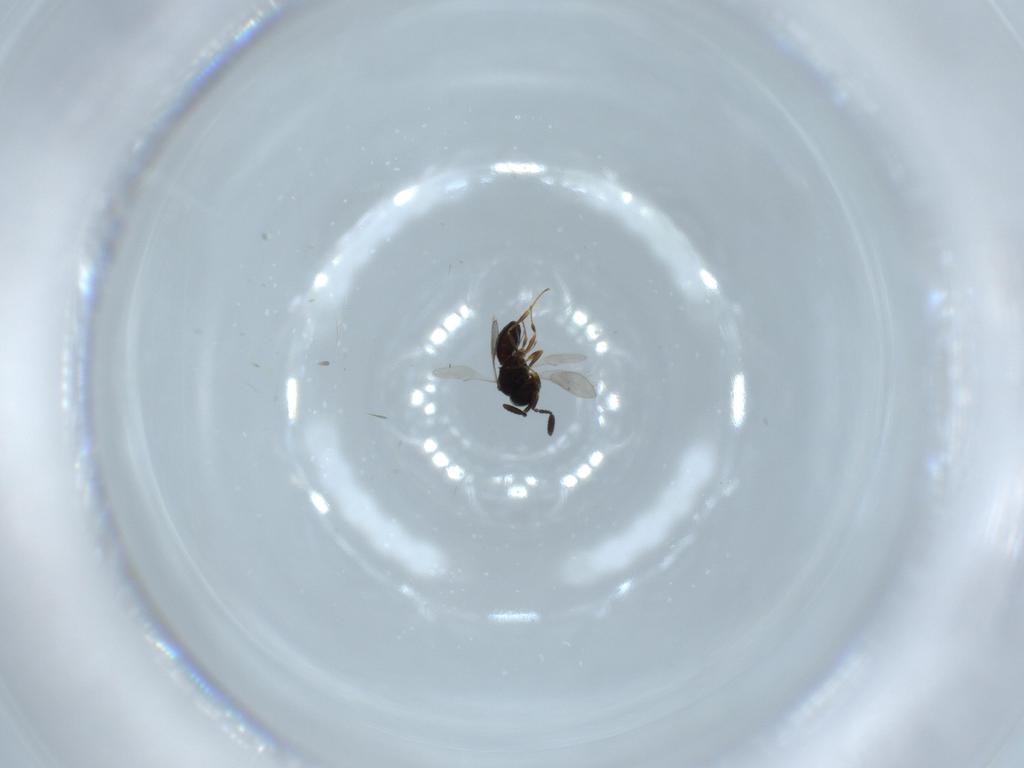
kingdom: Animalia
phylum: Arthropoda
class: Insecta
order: Hymenoptera
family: Scelionidae
